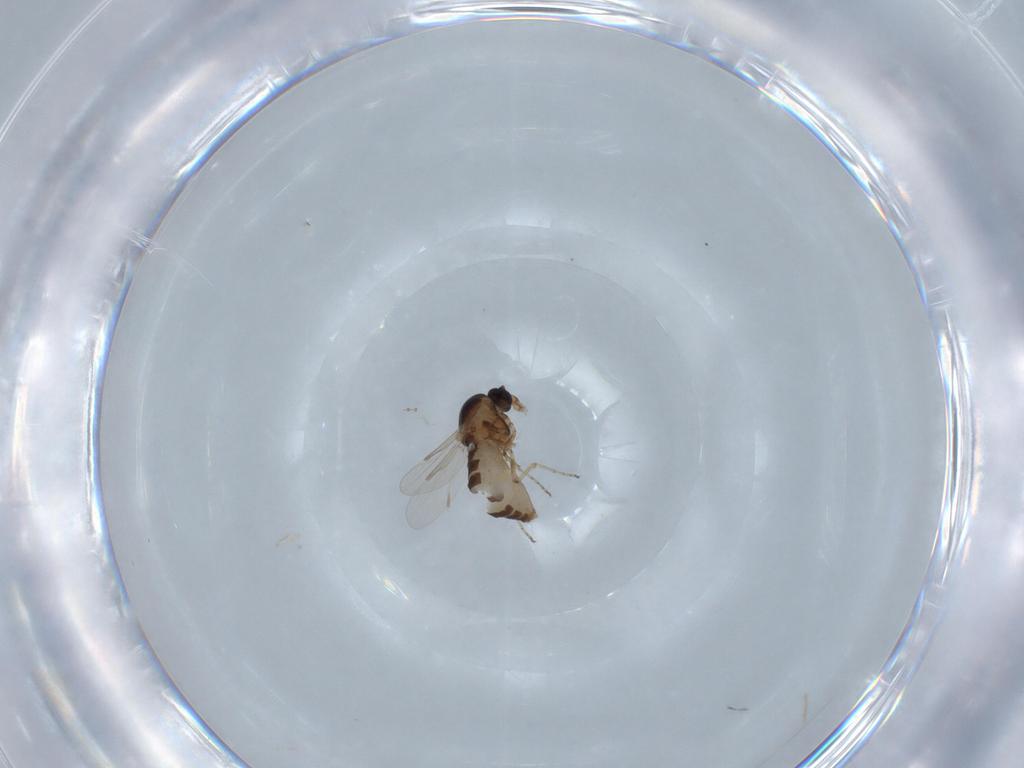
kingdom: Animalia
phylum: Arthropoda
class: Insecta
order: Diptera
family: Ceratopogonidae
